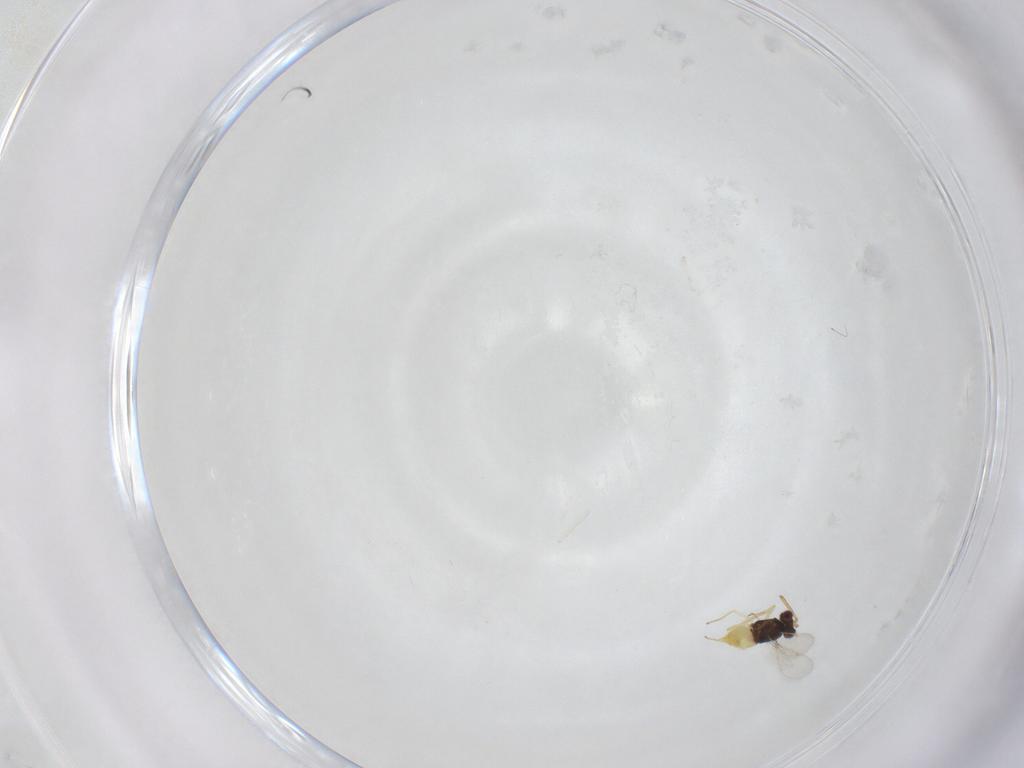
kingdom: Animalia
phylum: Arthropoda
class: Insecta
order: Hymenoptera
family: Aphelinidae
